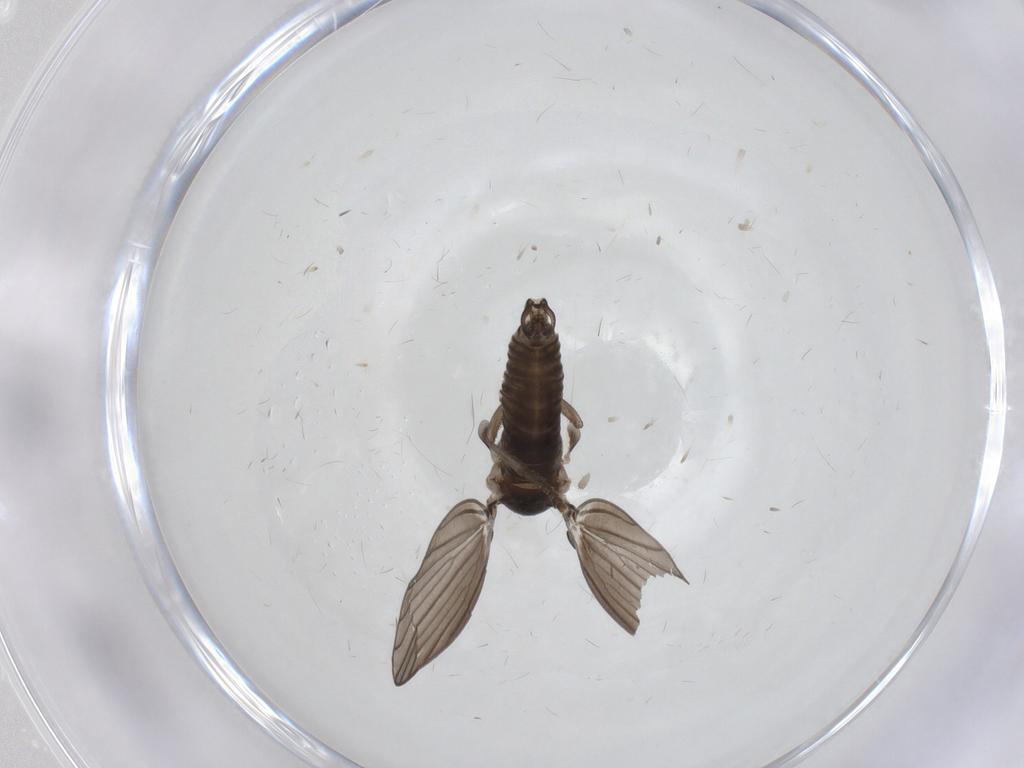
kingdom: Animalia
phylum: Arthropoda
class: Insecta
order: Diptera
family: Psychodidae
